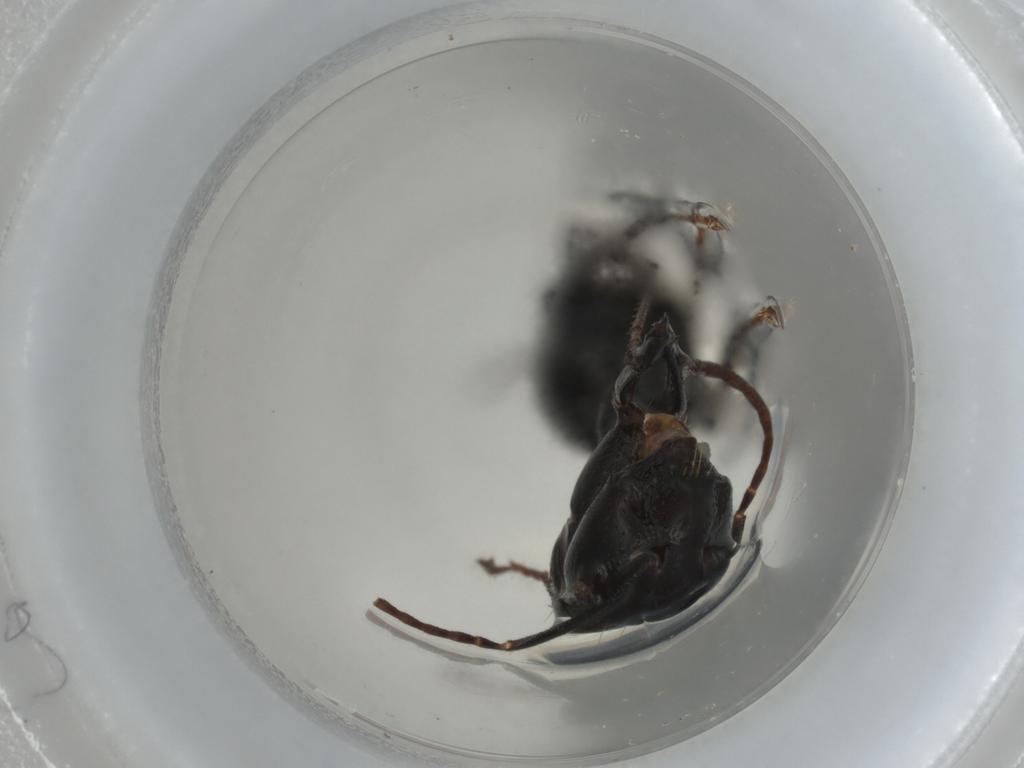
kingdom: Animalia
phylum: Arthropoda
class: Insecta
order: Hymenoptera
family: Formicidae
